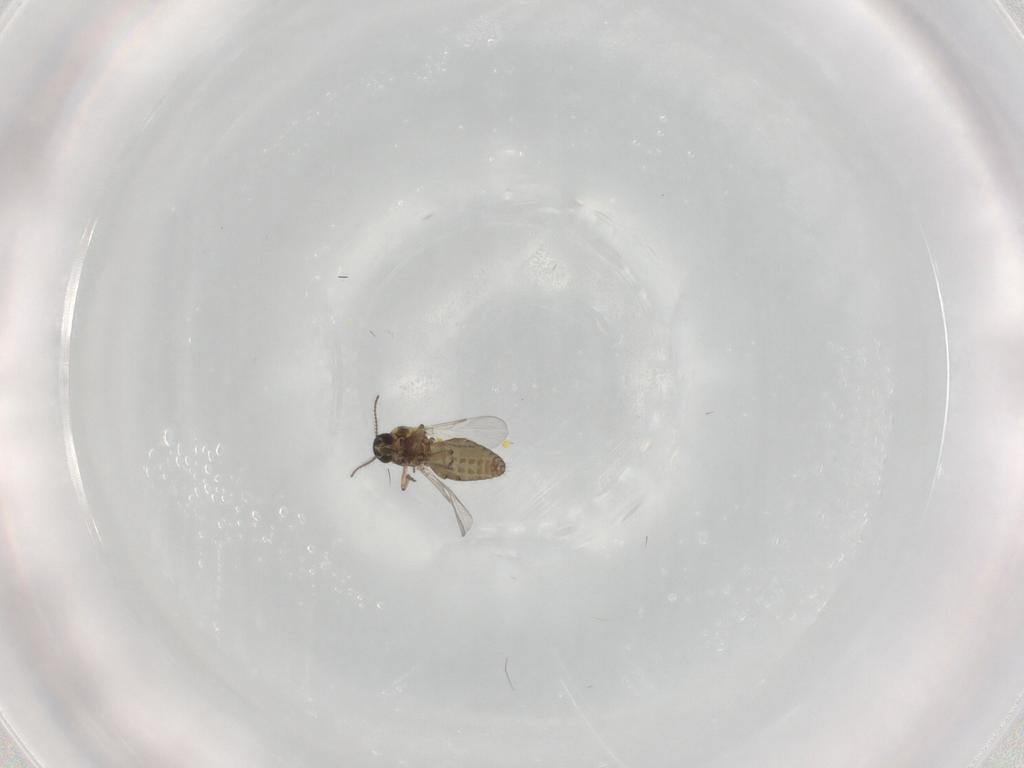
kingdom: Animalia
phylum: Arthropoda
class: Insecta
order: Diptera
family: Ceratopogonidae
